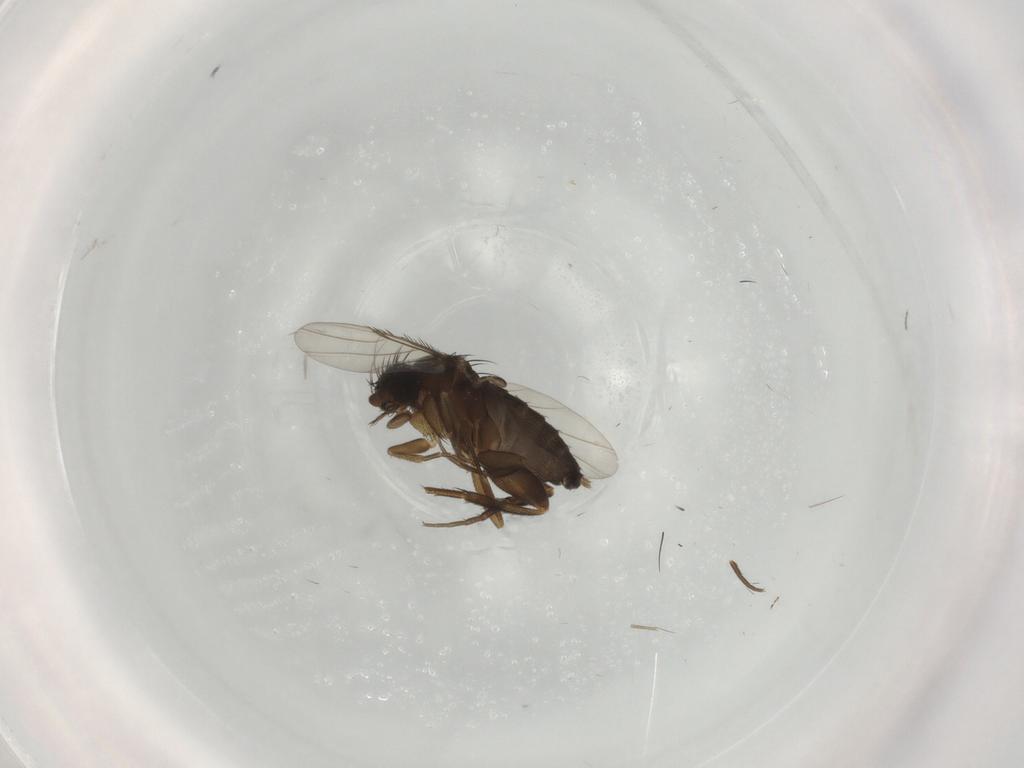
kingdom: Animalia
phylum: Arthropoda
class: Insecta
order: Diptera
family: Phoridae
